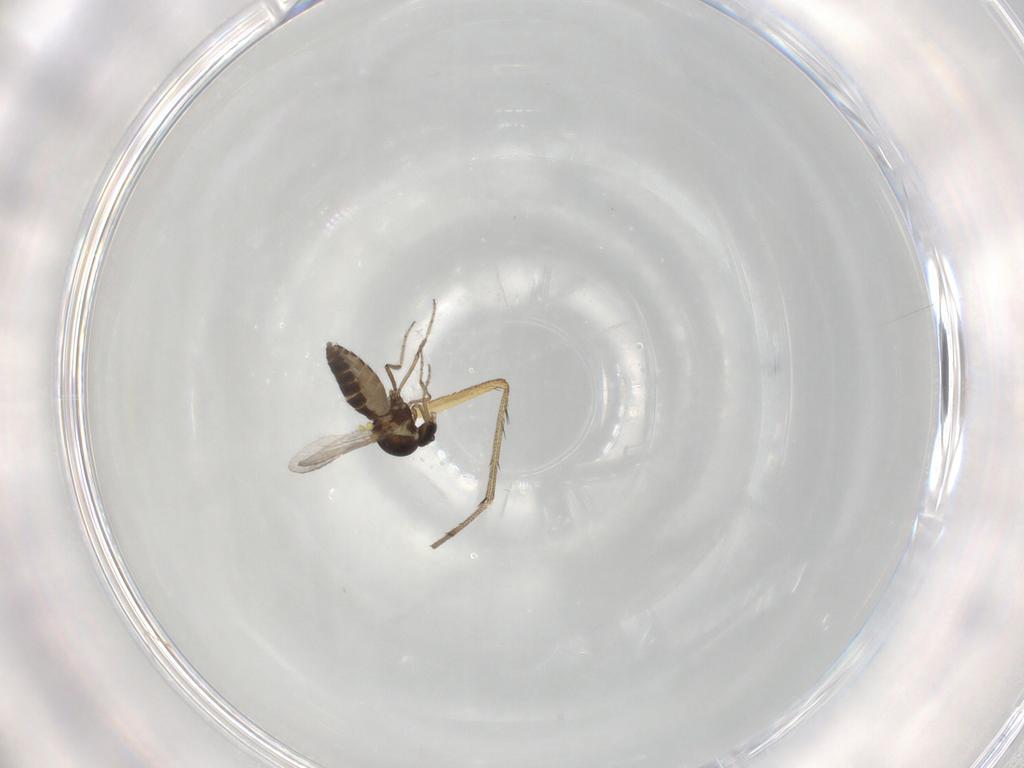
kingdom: Animalia
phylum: Arthropoda
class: Insecta
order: Diptera
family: Ceratopogonidae
